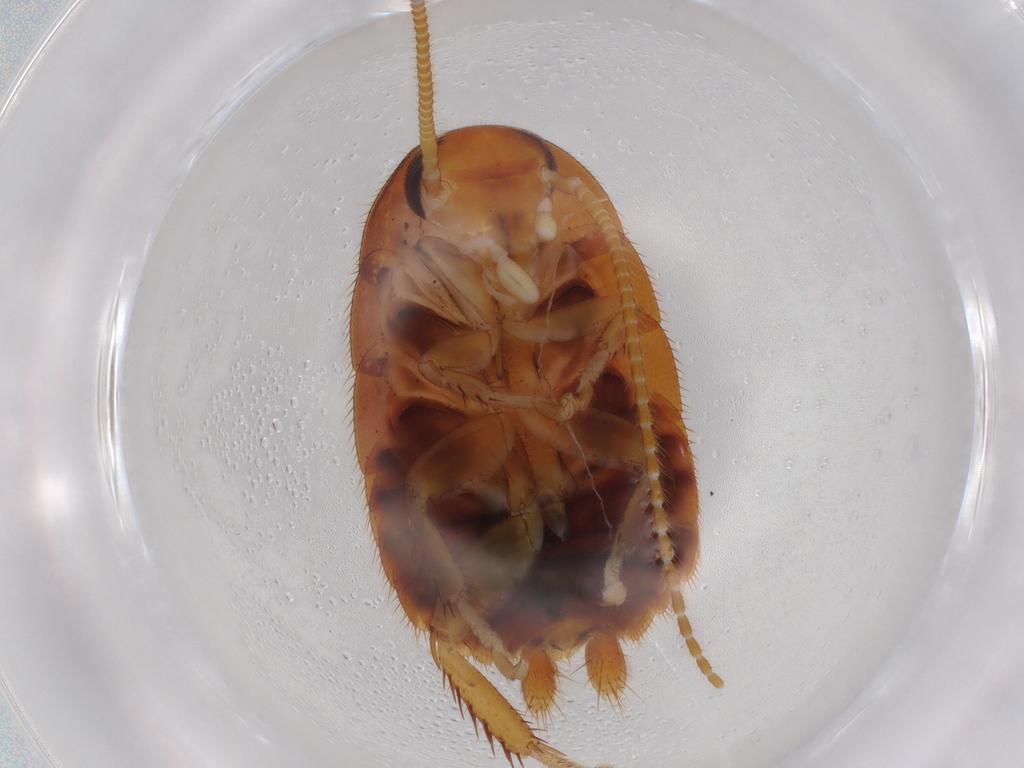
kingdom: Animalia
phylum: Arthropoda
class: Insecta
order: Blattodea
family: Ectobiidae
